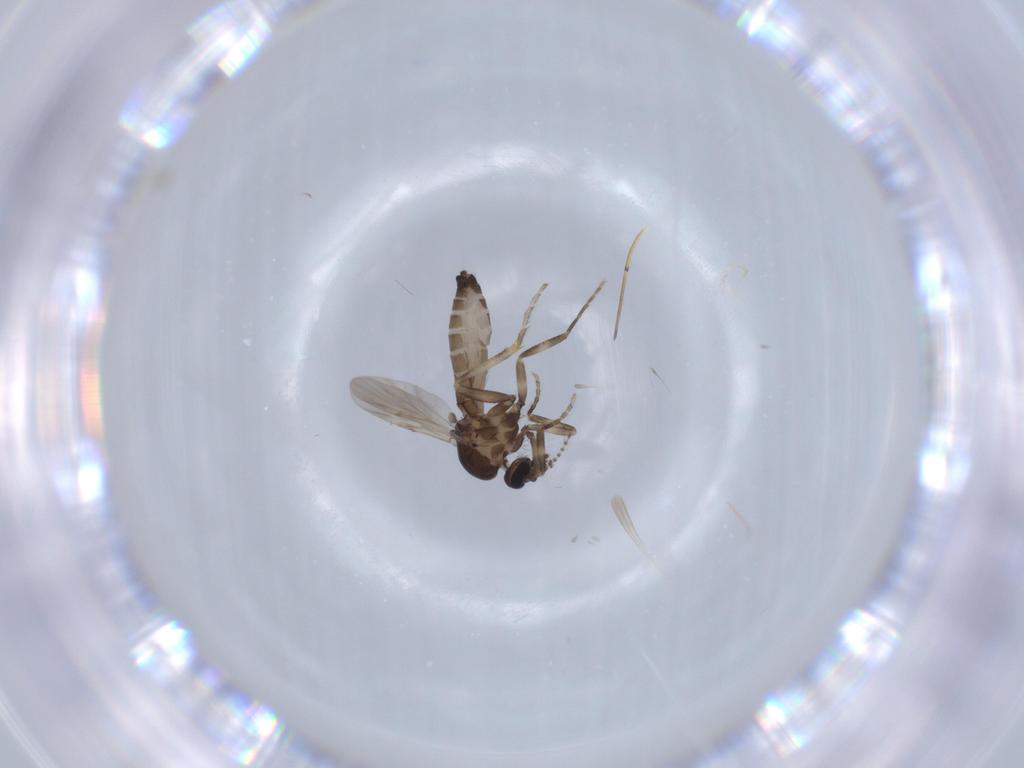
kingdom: Animalia
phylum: Arthropoda
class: Insecta
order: Diptera
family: Ceratopogonidae
